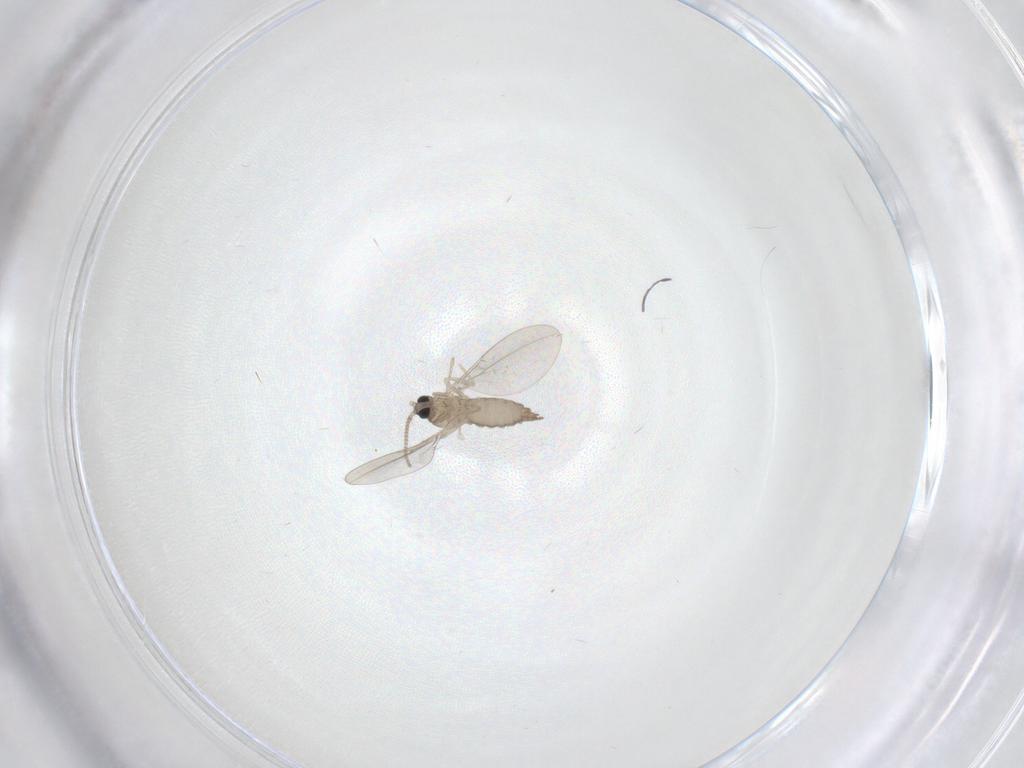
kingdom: Animalia
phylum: Arthropoda
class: Insecta
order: Diptera
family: Cecidomyiidae
